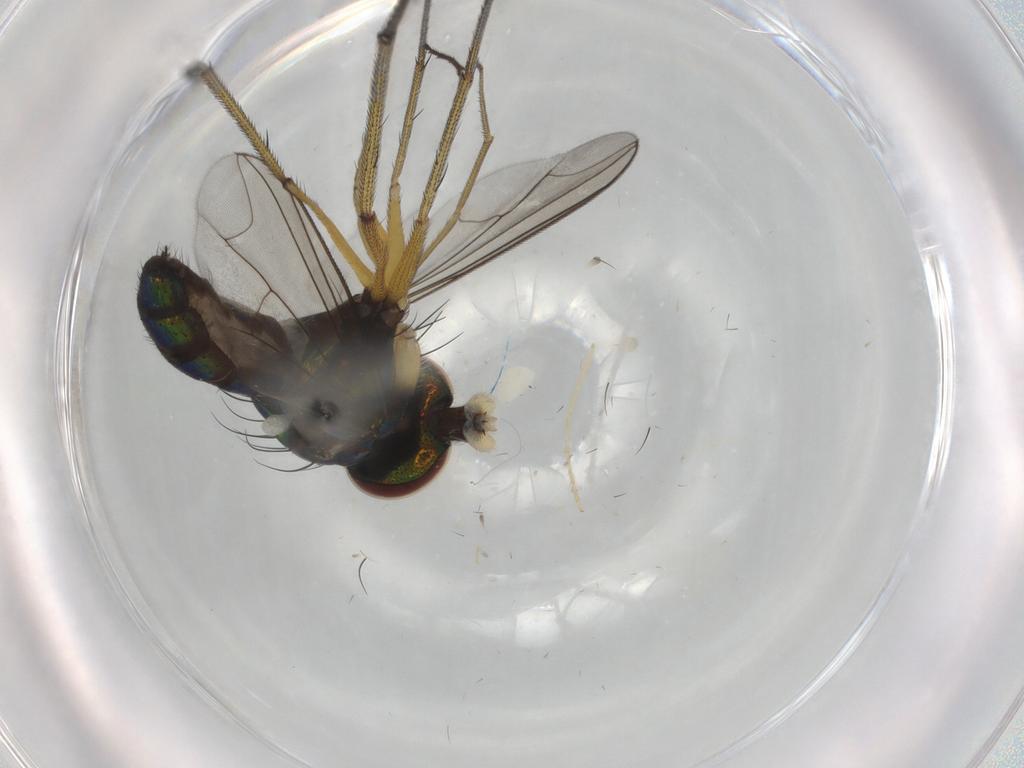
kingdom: Animalia
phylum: Arthropoda
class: Insecta
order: Diptera
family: Dolichopodidae
